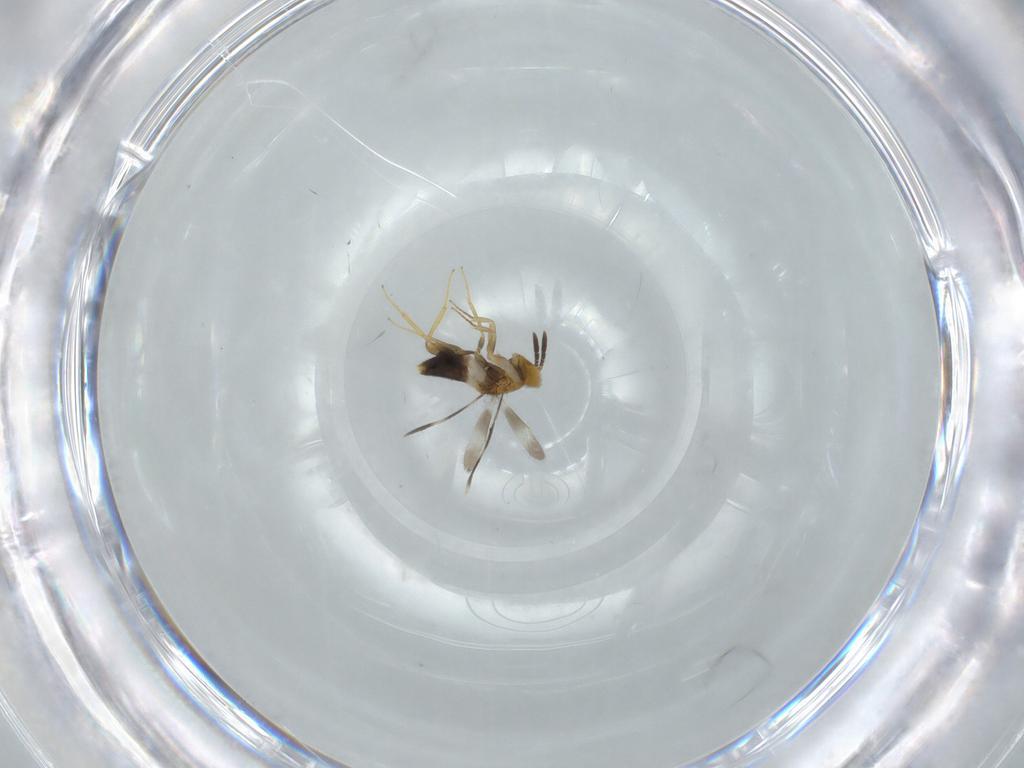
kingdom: Animalia
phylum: Arthropoda
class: Insecta
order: Hymenoptera
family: Aphelinidae
